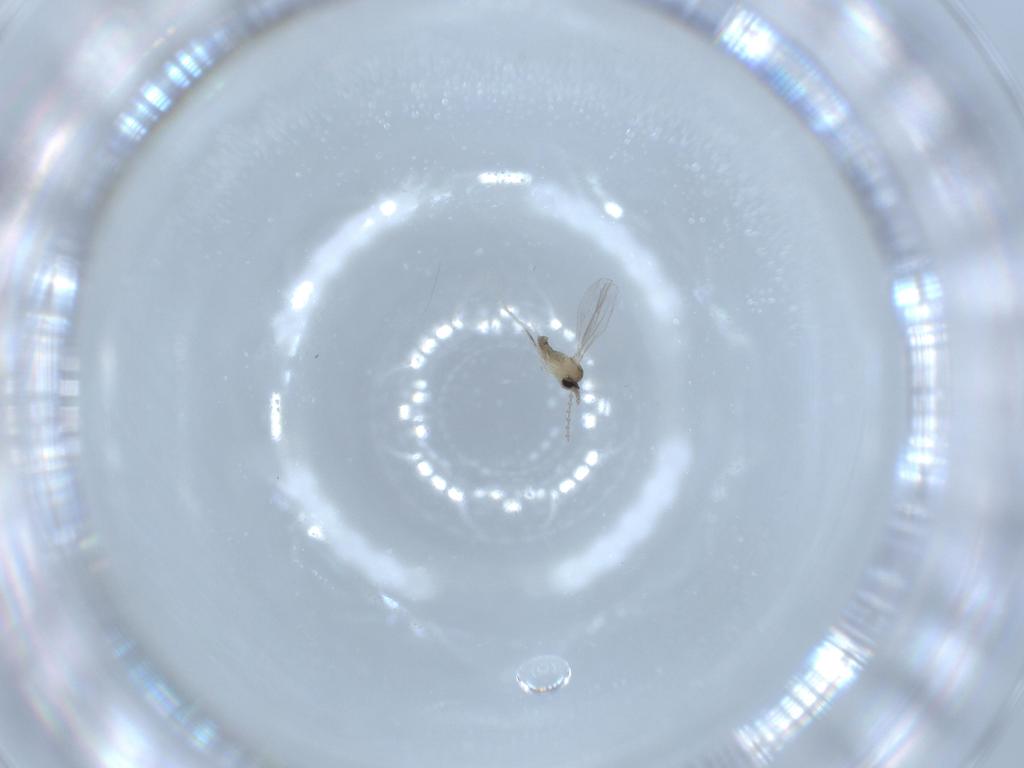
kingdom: Animalia
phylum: Arthropoda
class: Insecta
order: Diptera
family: Cecidomyiidae
